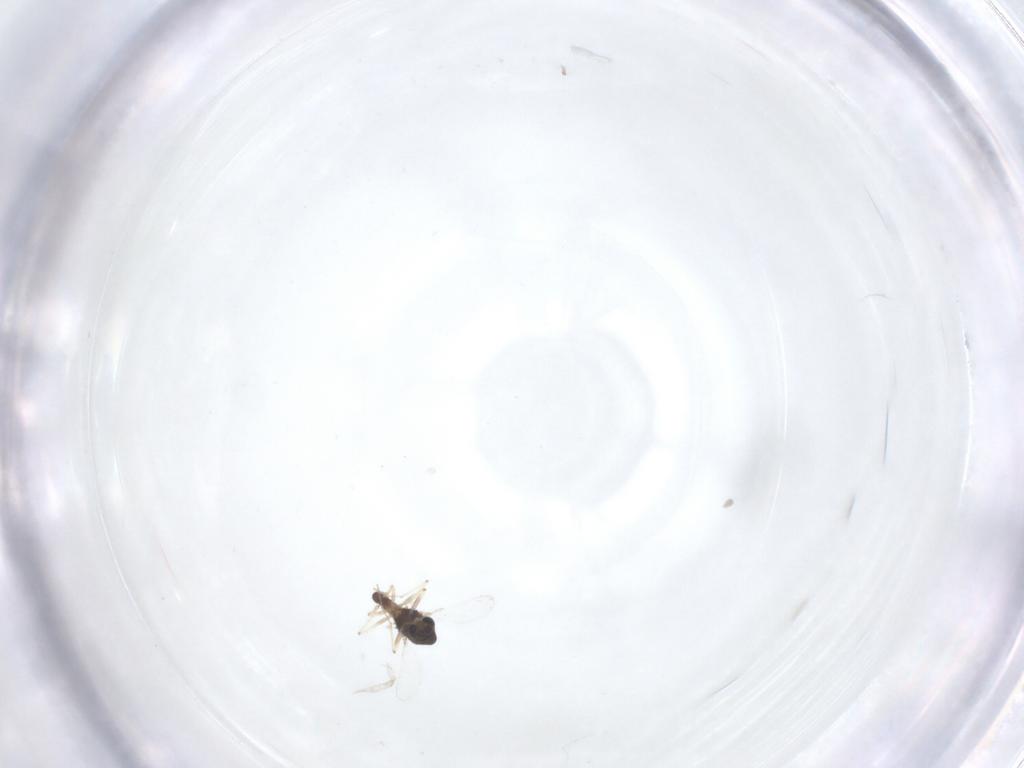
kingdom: Animalia
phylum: Arthropoda
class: Insecta
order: Diptera
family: Chironomidae
